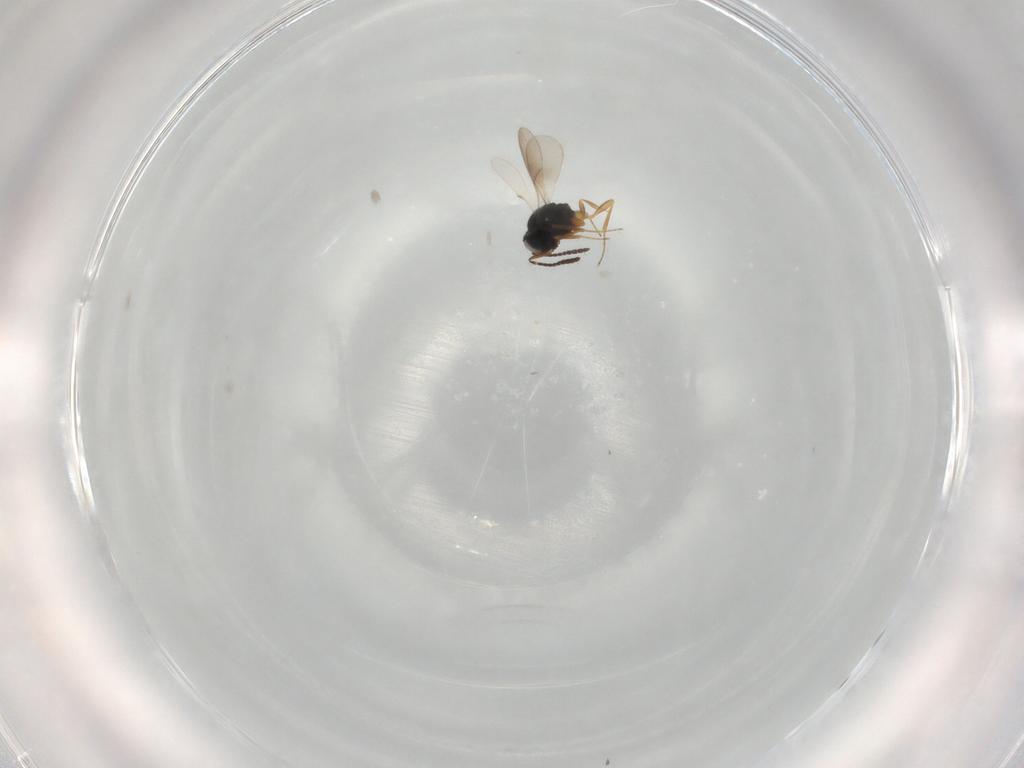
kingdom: Animalia
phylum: Arthropoda
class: Insecta
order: Hymenoptera
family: Scelionidae
